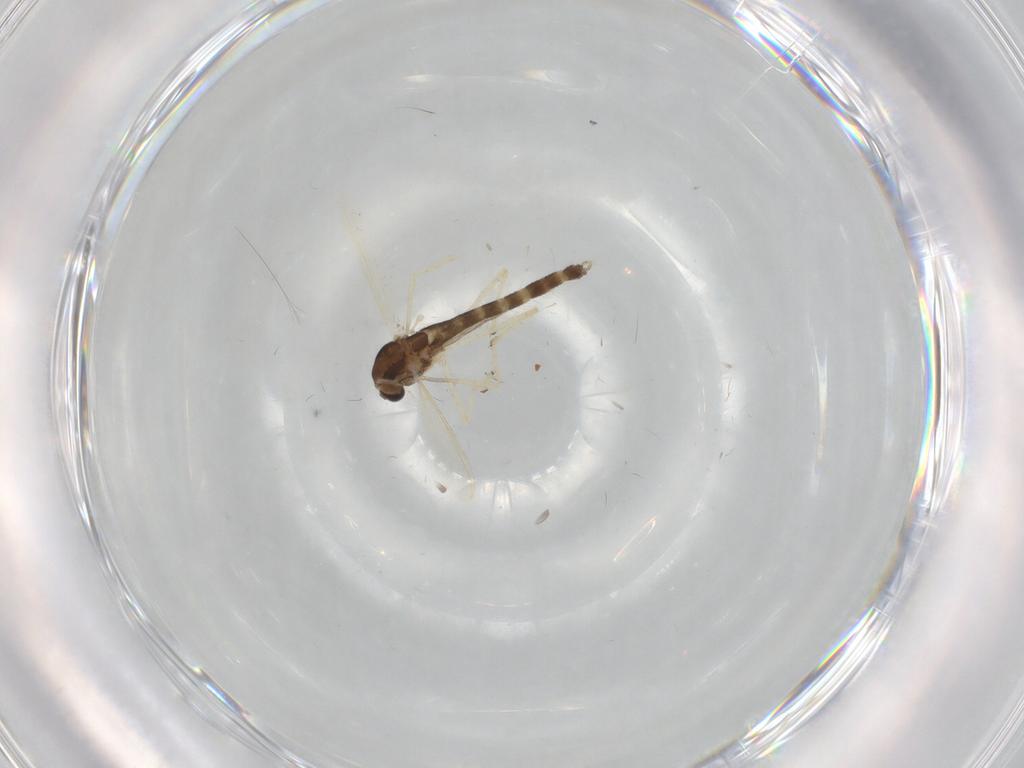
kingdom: Animalia
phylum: Arthropoda
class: Insecta
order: Diptera
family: Chironomidae
